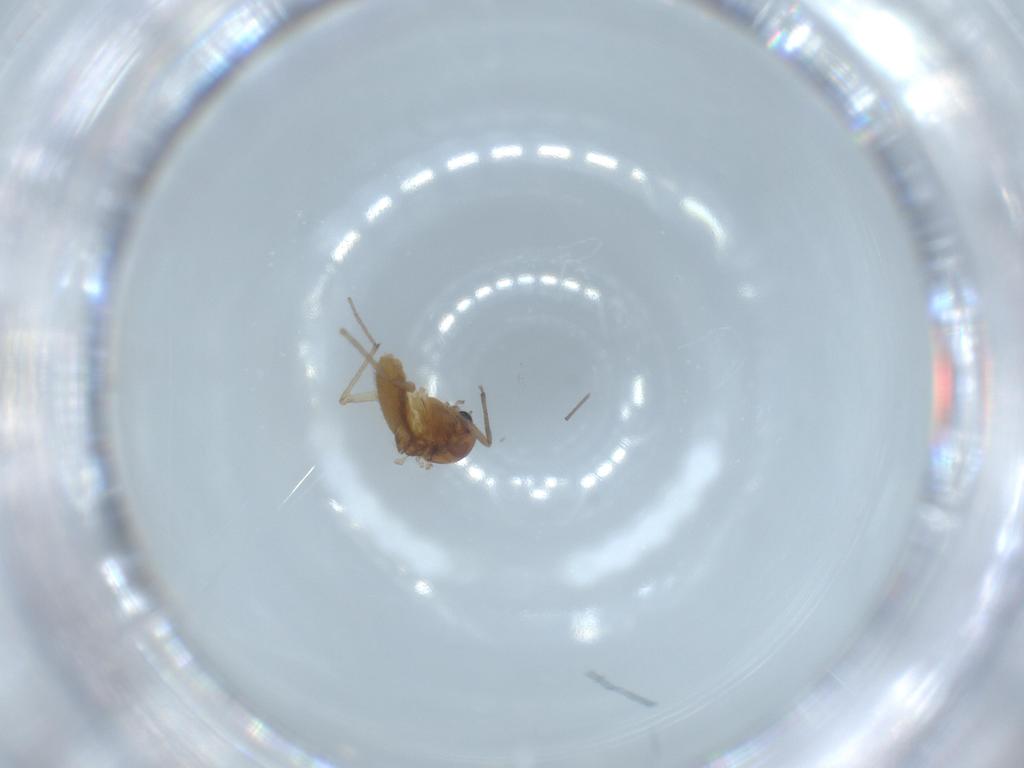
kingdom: Animalia
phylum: Arthropoda
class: Insecta
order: Diptera
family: Chironomidae
